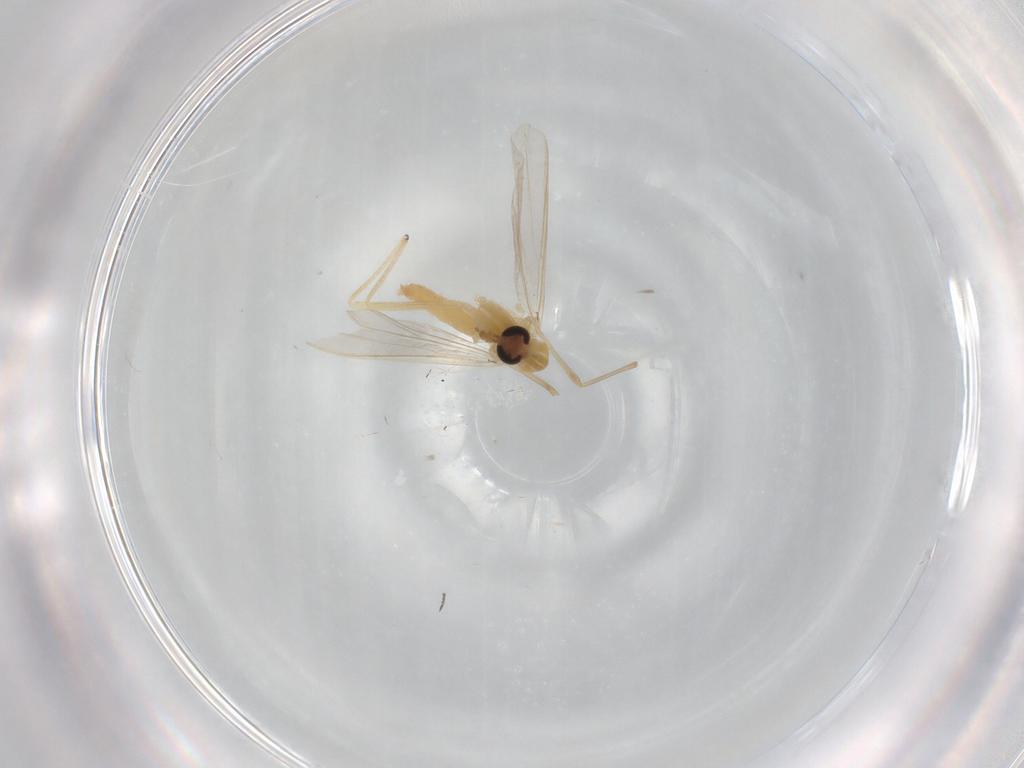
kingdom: Animalia
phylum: Arthropoda
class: Insecta
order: Diptera
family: Chironomidae
